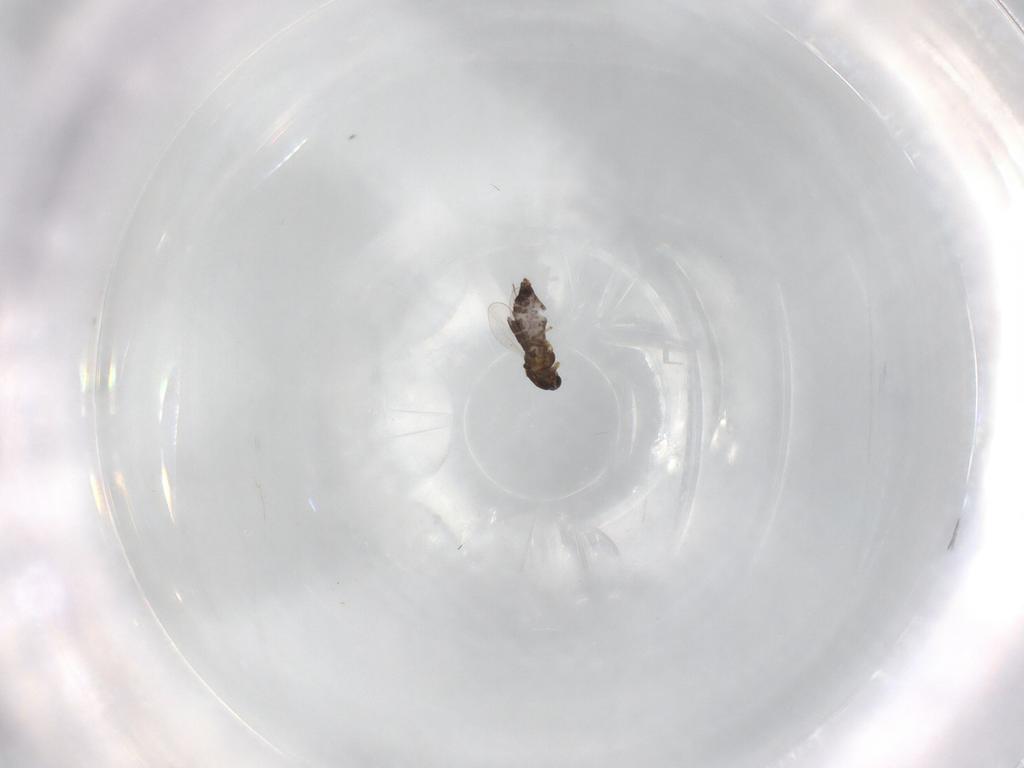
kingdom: Animalia
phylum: Arthropoda
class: Insecta
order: Diptera
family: Chironomidae
